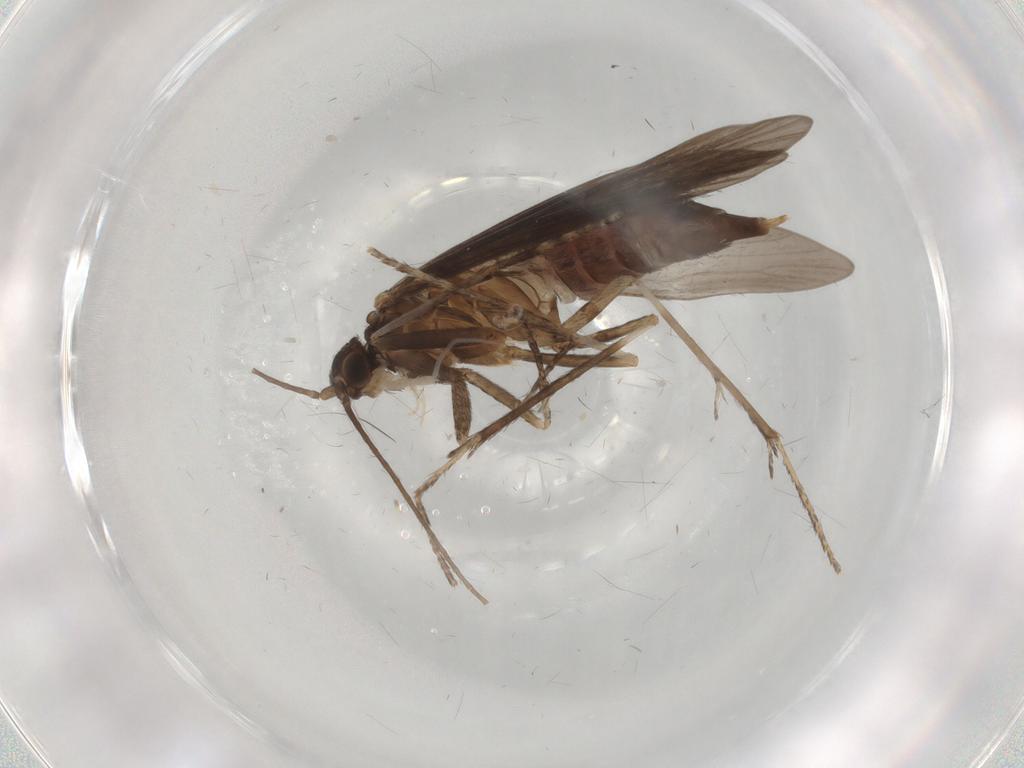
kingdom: Animalia
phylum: Arthropoda
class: Insecta
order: Trichoptera
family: Xiphocentronidae
